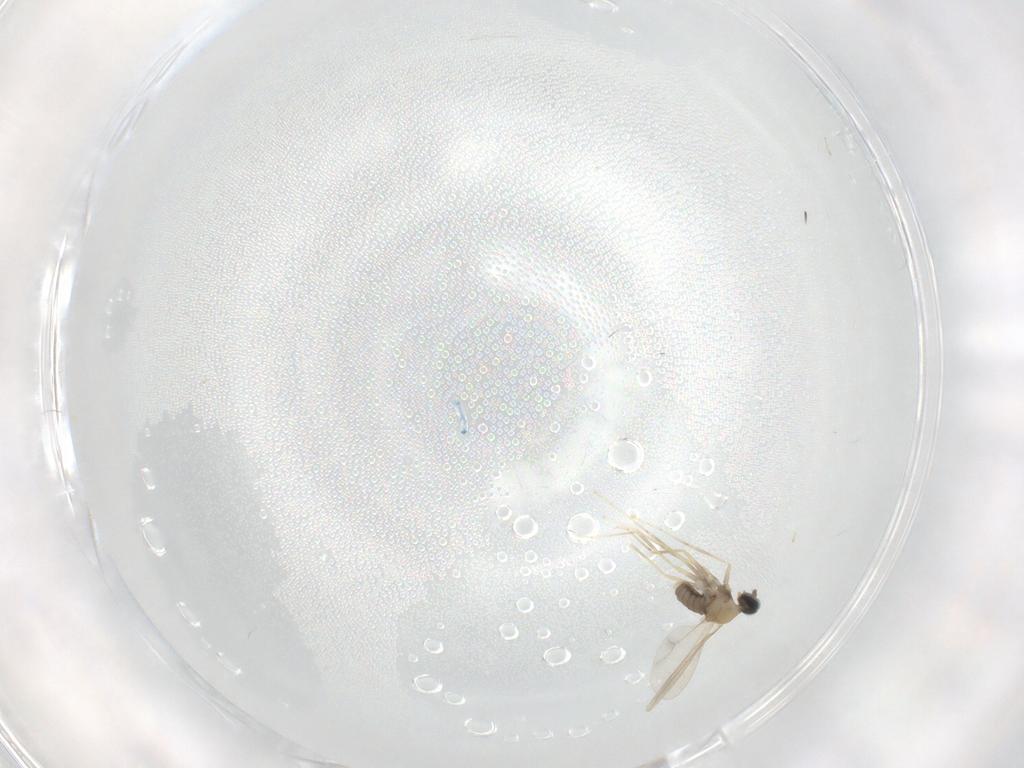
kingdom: Animalia
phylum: Arthropoda
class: Insecta
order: Diptera
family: Cecidomyiidae
